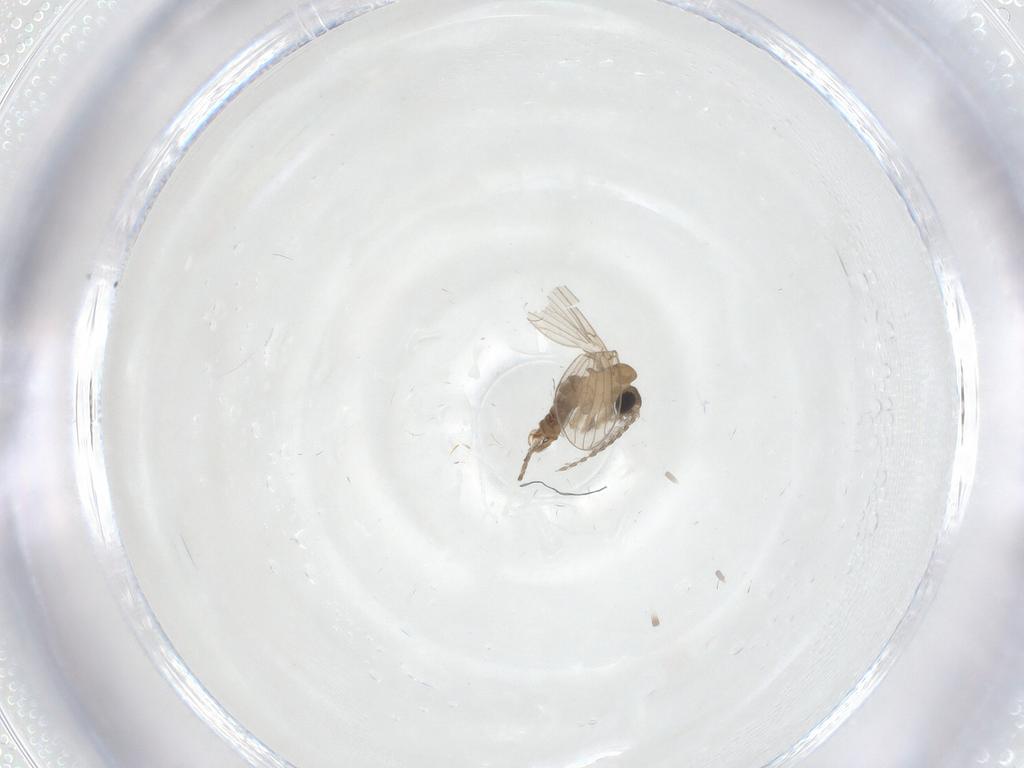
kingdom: Animalia
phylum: Arthropoda
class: Insecta
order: Diptera
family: Psychodidae
